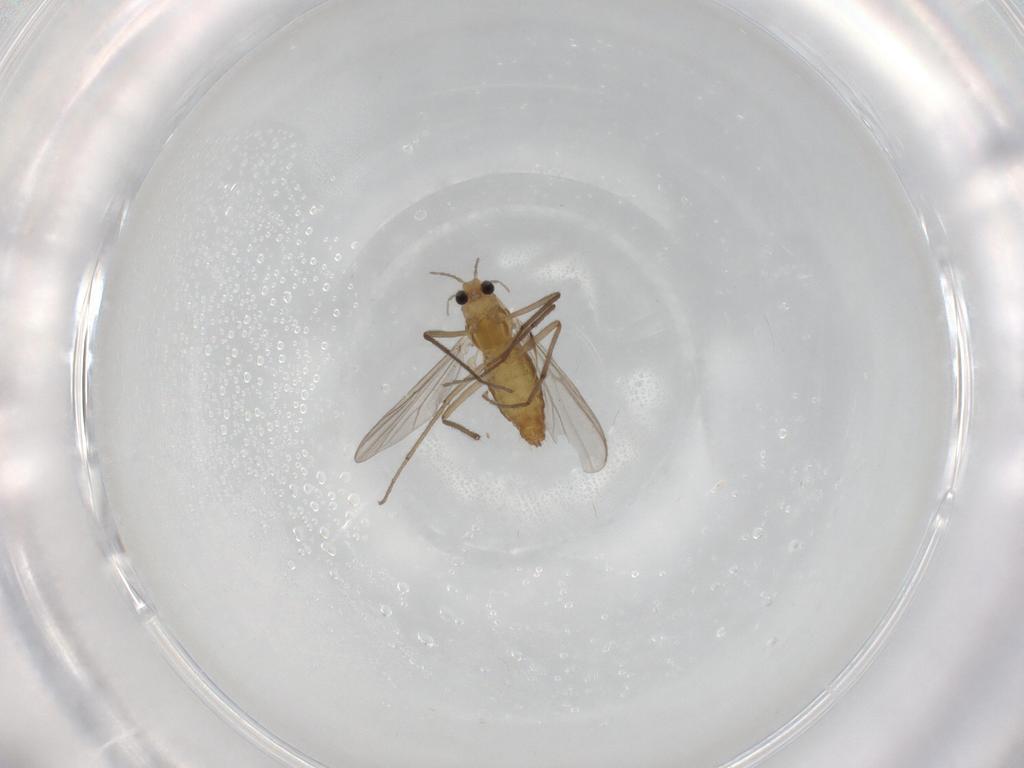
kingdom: Animalia
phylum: Arthropoda
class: Insecta
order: Diptera
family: Chironomidae
